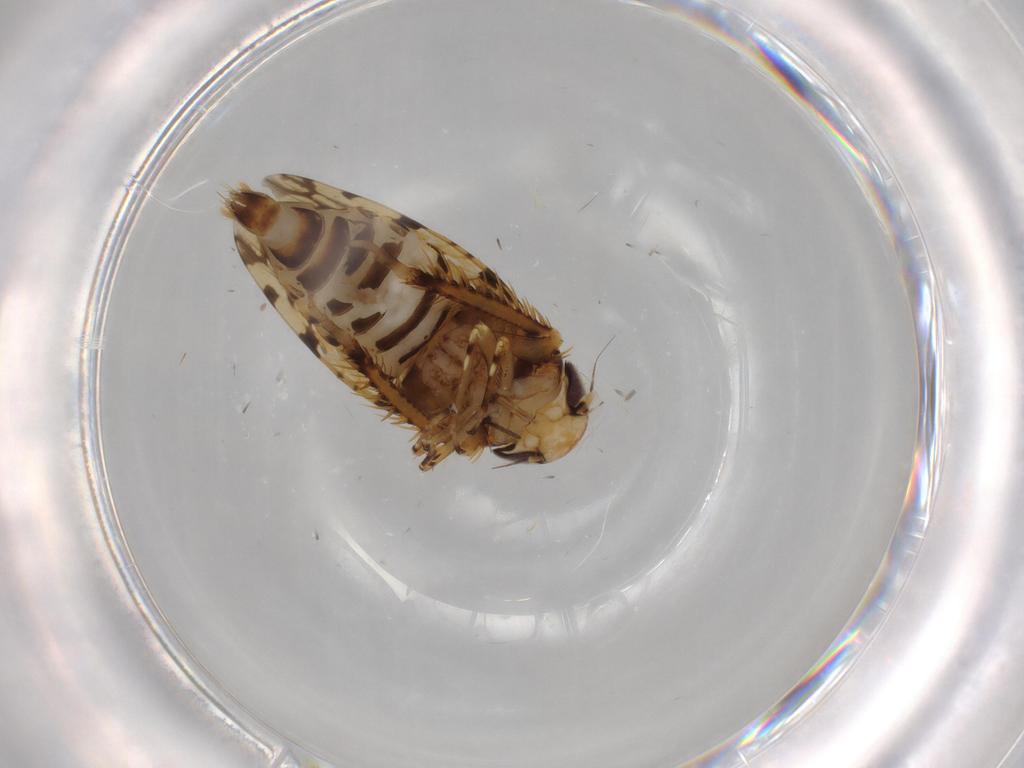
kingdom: Animalia
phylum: Arthropoda
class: Insecta
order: Hemiptera
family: Cicadellidae
